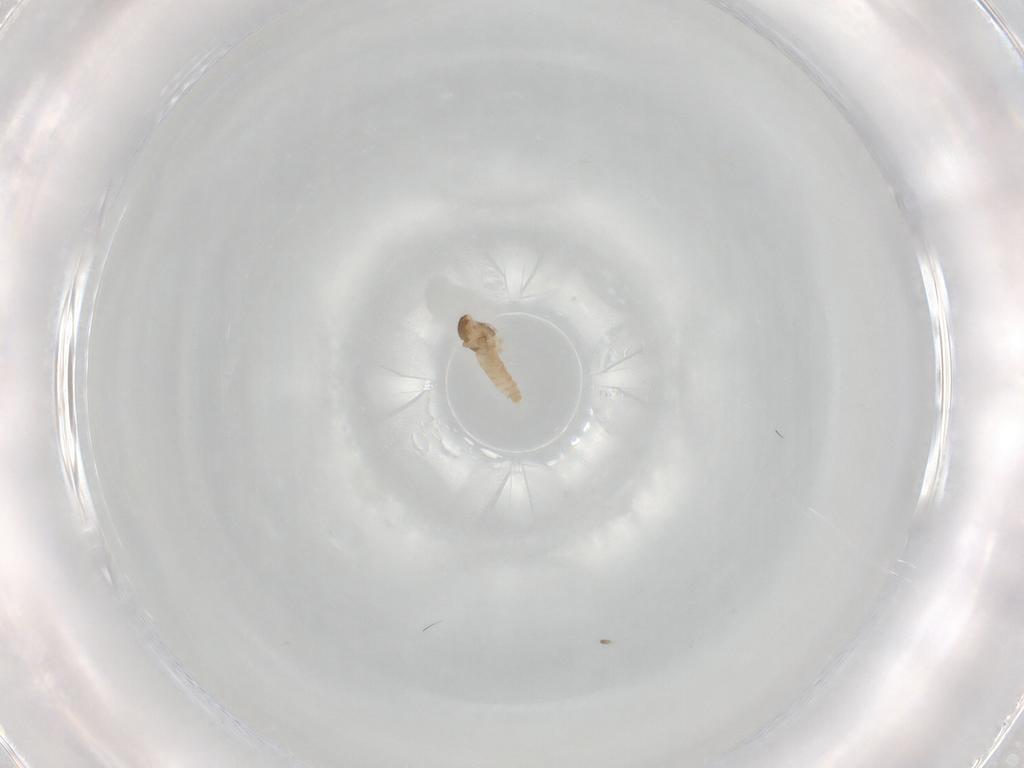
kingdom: Animalia
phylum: Arthropoda
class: Insecta
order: Diptera
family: Cecidomyiidae
